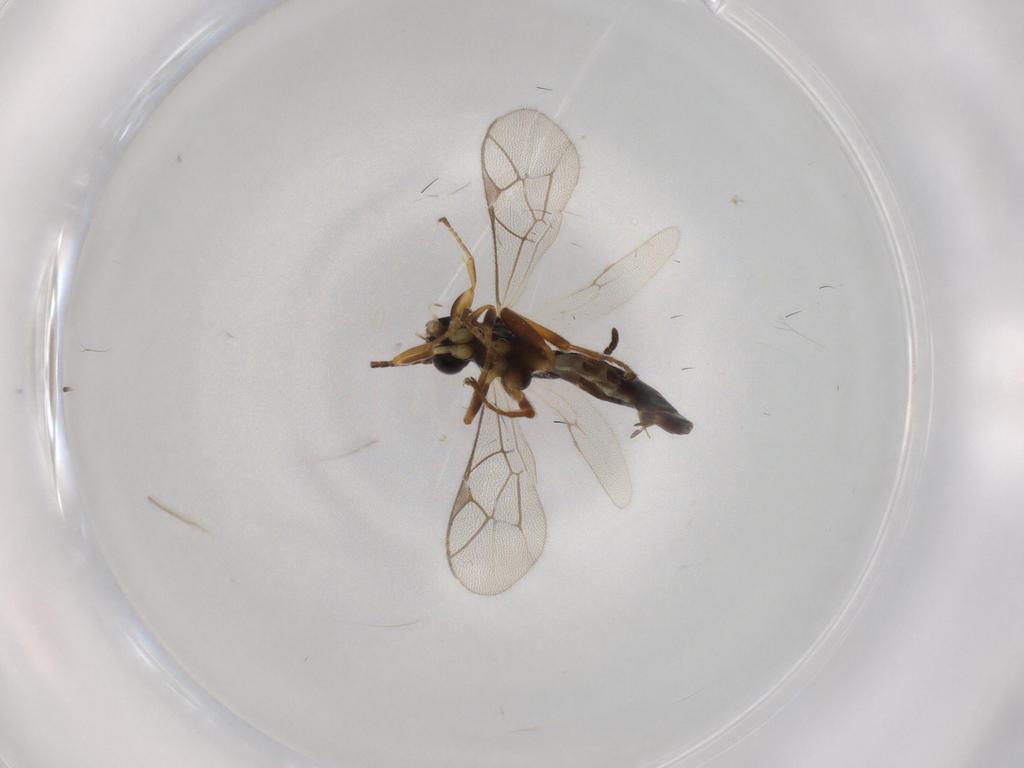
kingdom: Animalia
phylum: Arthropoda
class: Insecta
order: Hymenoptera
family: Ichneumonidae
